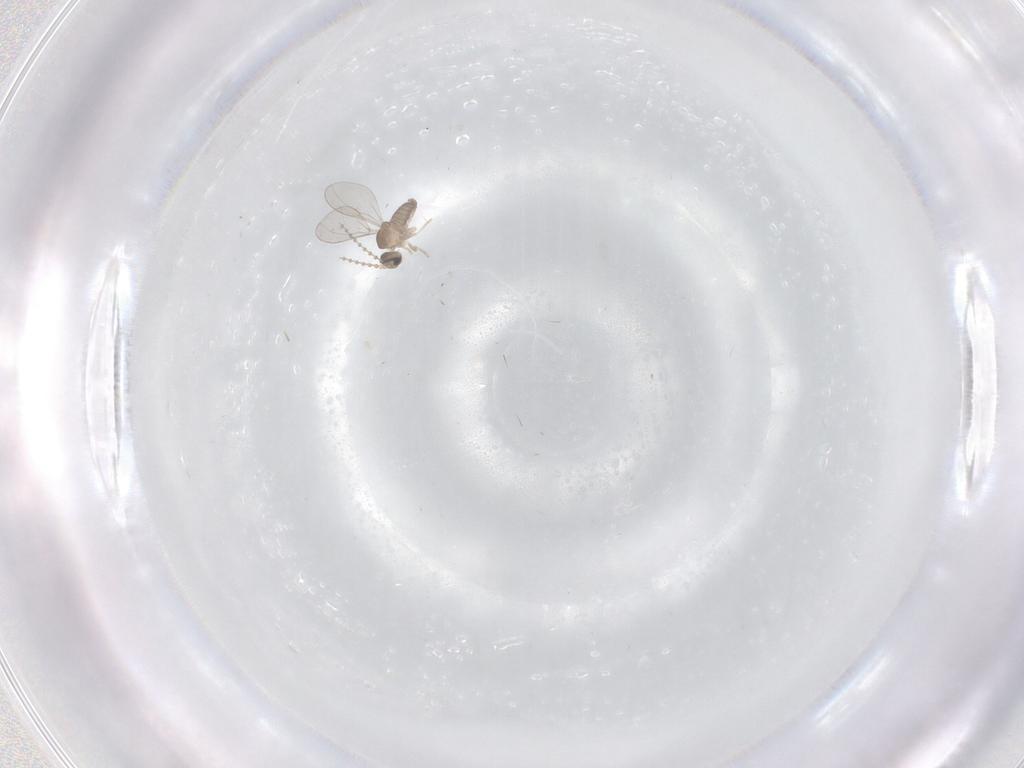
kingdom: Animalia
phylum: Arthropoda
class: Insecta
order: Diptera
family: Cecidomyiidae
